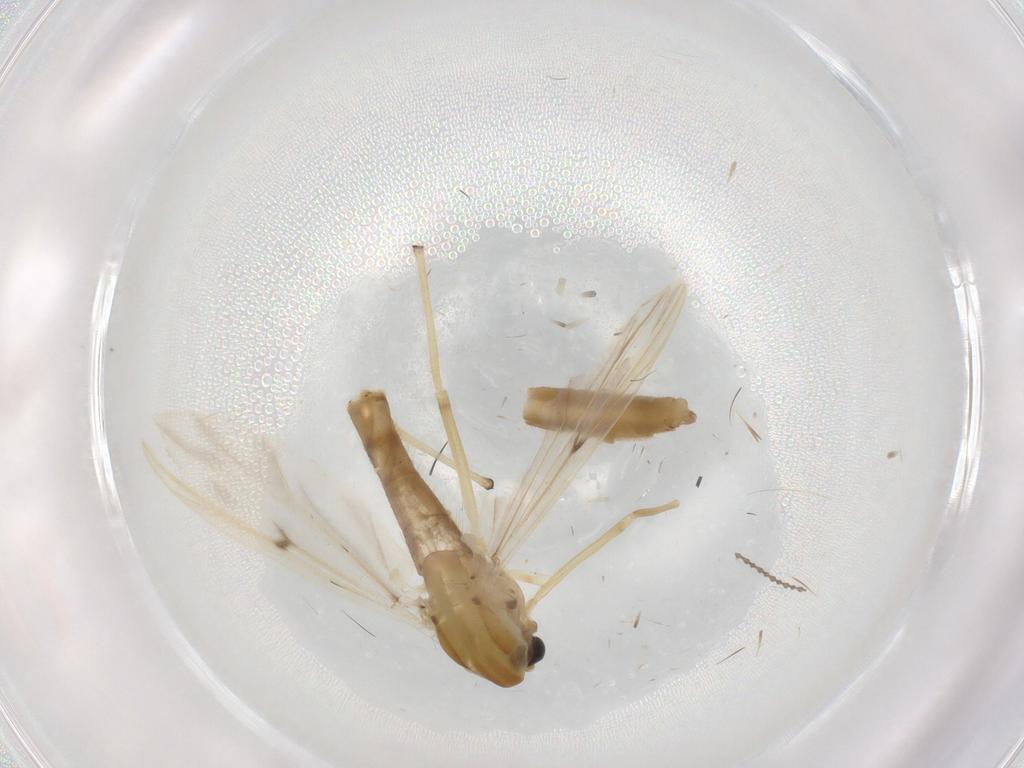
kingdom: Animalia
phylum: Arthropoda
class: Insecta
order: Diptera
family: Chironomidae
